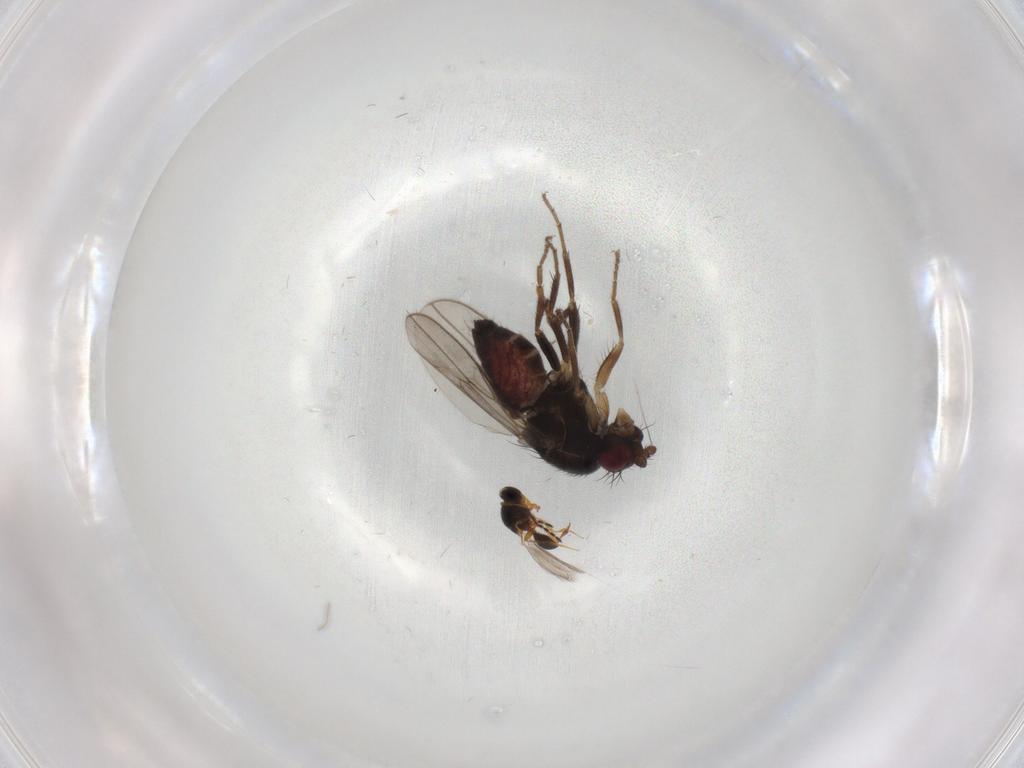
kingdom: Animalia
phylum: Arthropoda
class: Insecta
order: Diptera
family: Sphaeroceridae
